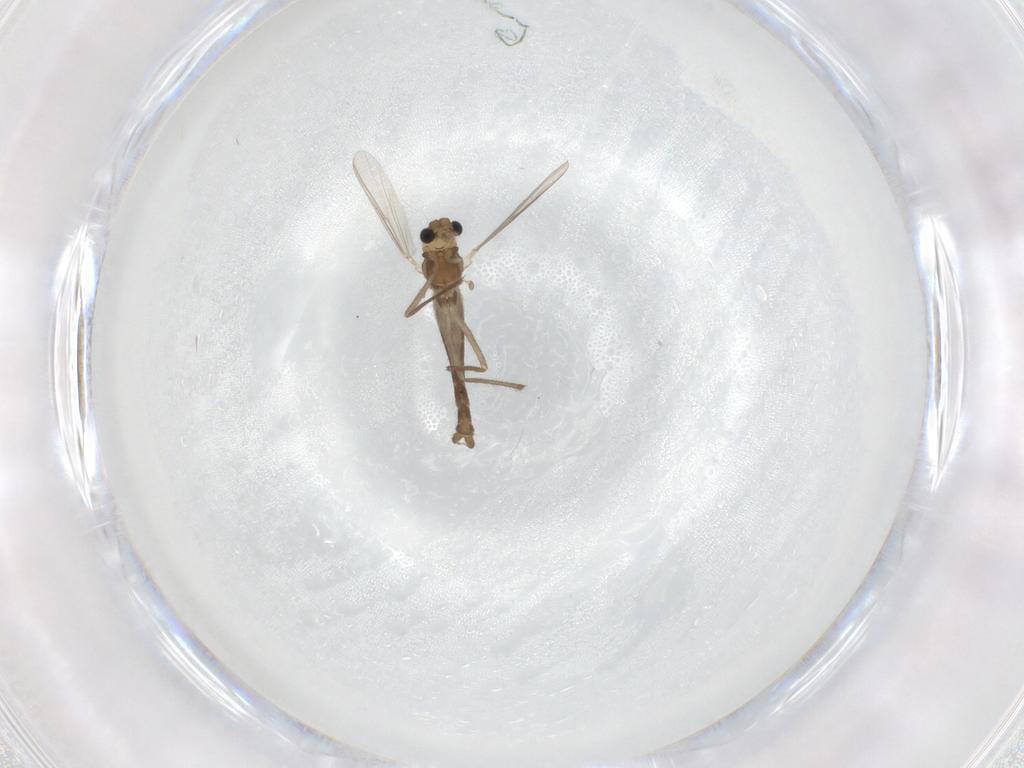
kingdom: Animalia
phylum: Arthropoda
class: Insecta
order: Diptera
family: Chironomidae
